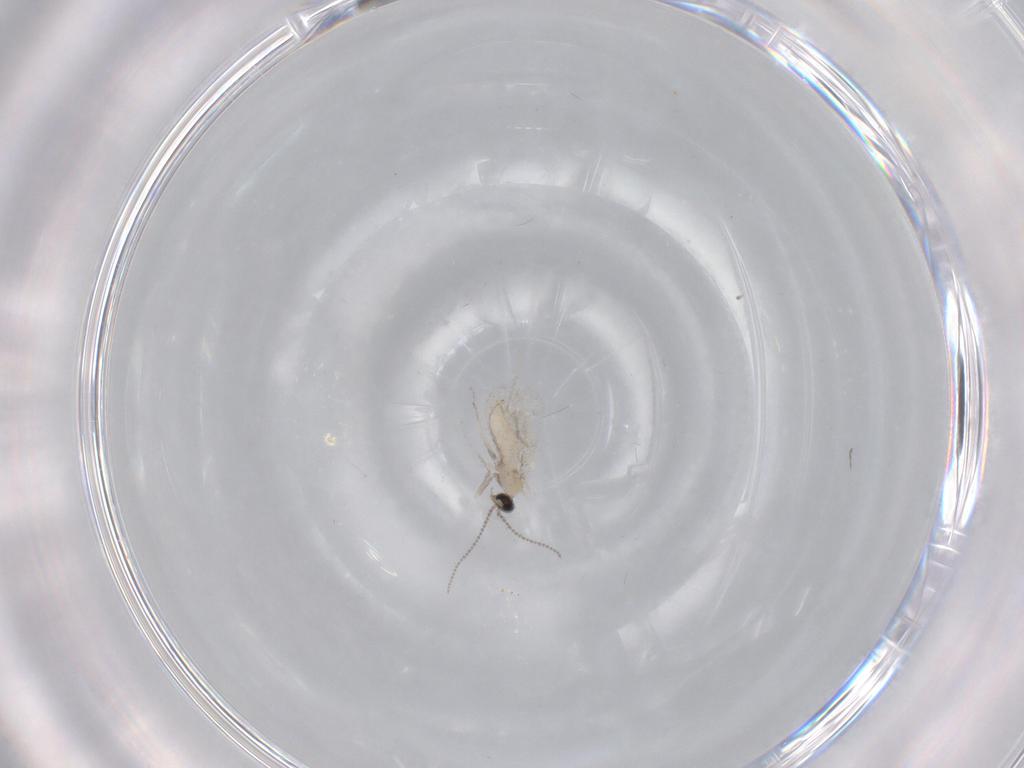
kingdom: Animalia
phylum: Arthropoda
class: Insecta
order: Diptera
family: Cecidomyiidae
